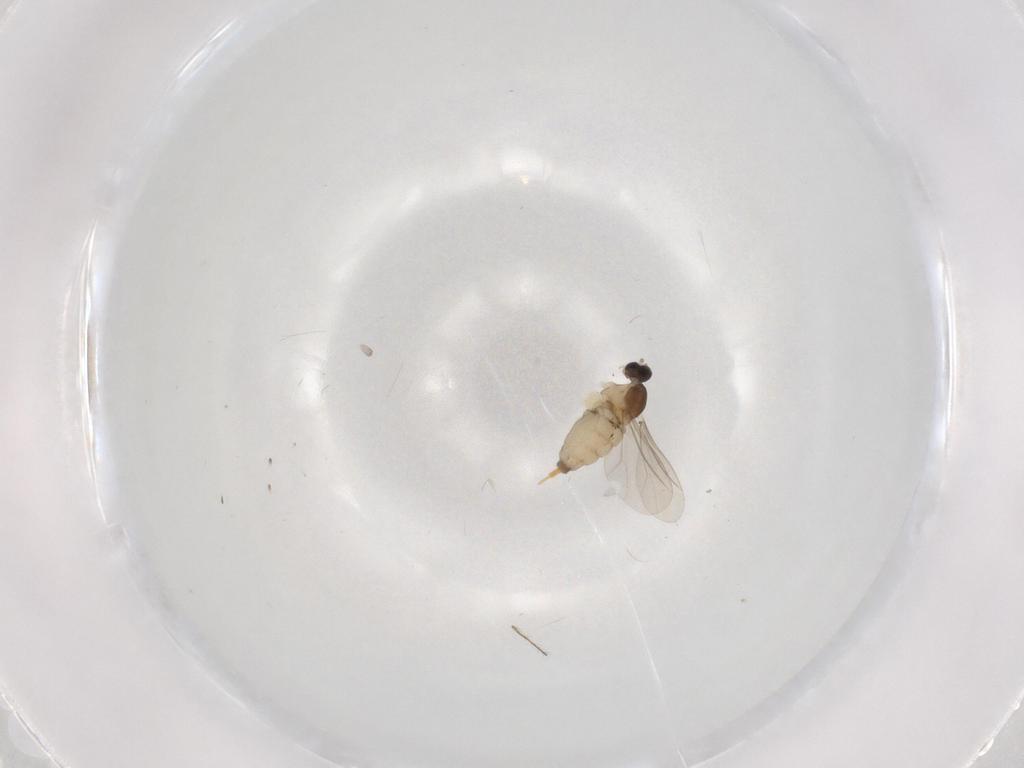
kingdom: Animalia
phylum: Arthropoda
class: Insecta
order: Diptera
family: Cecidomyiidae
